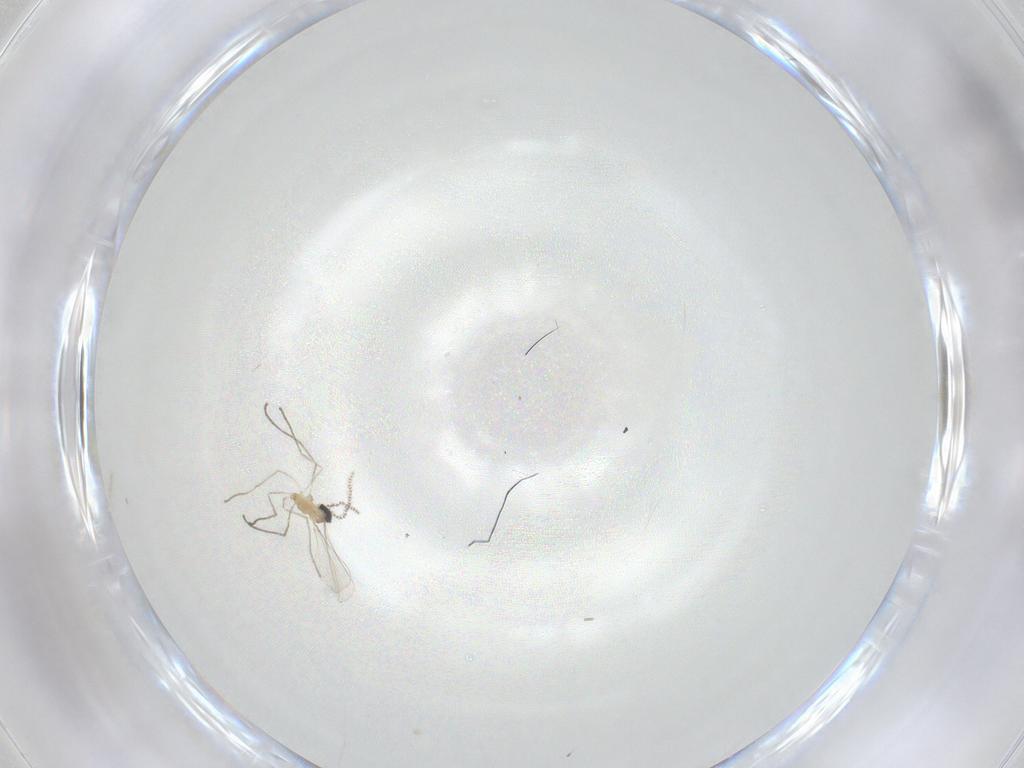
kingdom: Animalia
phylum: Arthropoda
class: Insecta
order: Diptera
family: Cecidomyiidae
